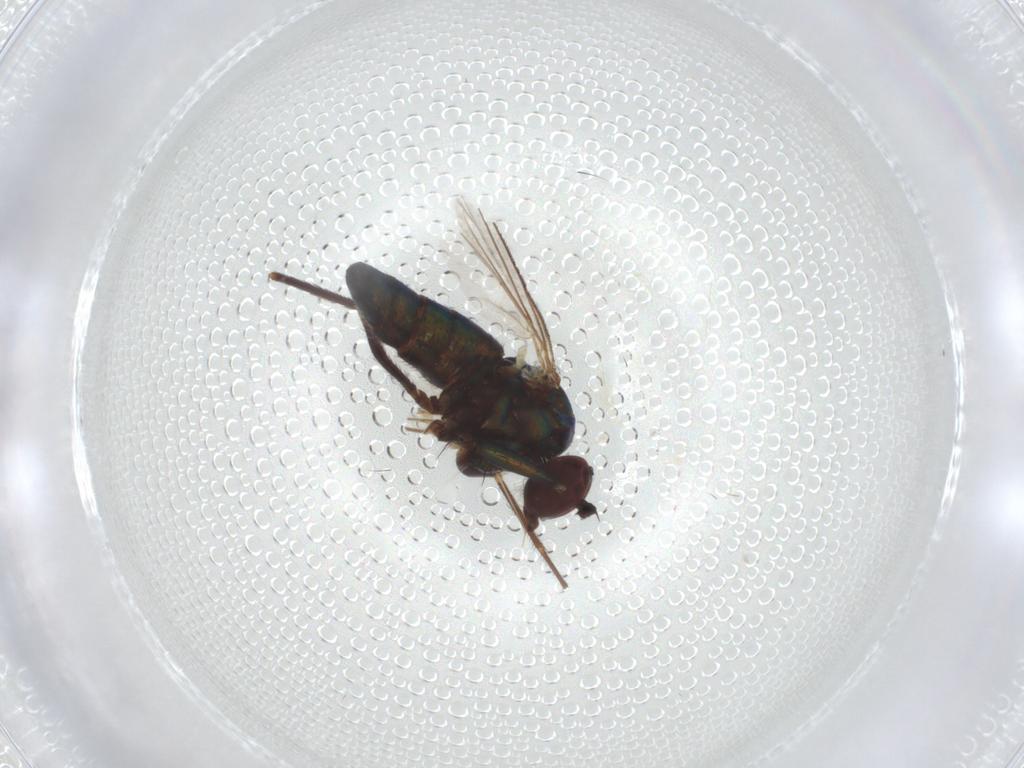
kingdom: Animalia
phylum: Arthropoda
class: Insecta
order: Diptera
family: Dolichopodidae
